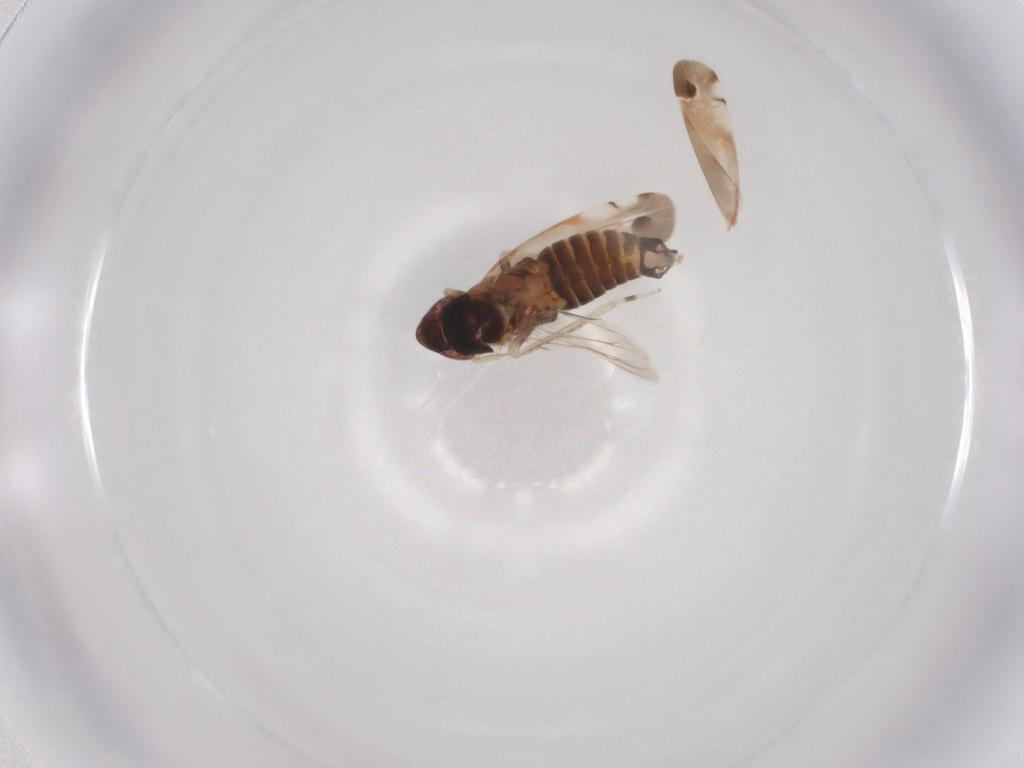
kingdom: Animalia
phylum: Arthropoda
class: Insecta
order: Hemiptera
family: Cicadellidae
